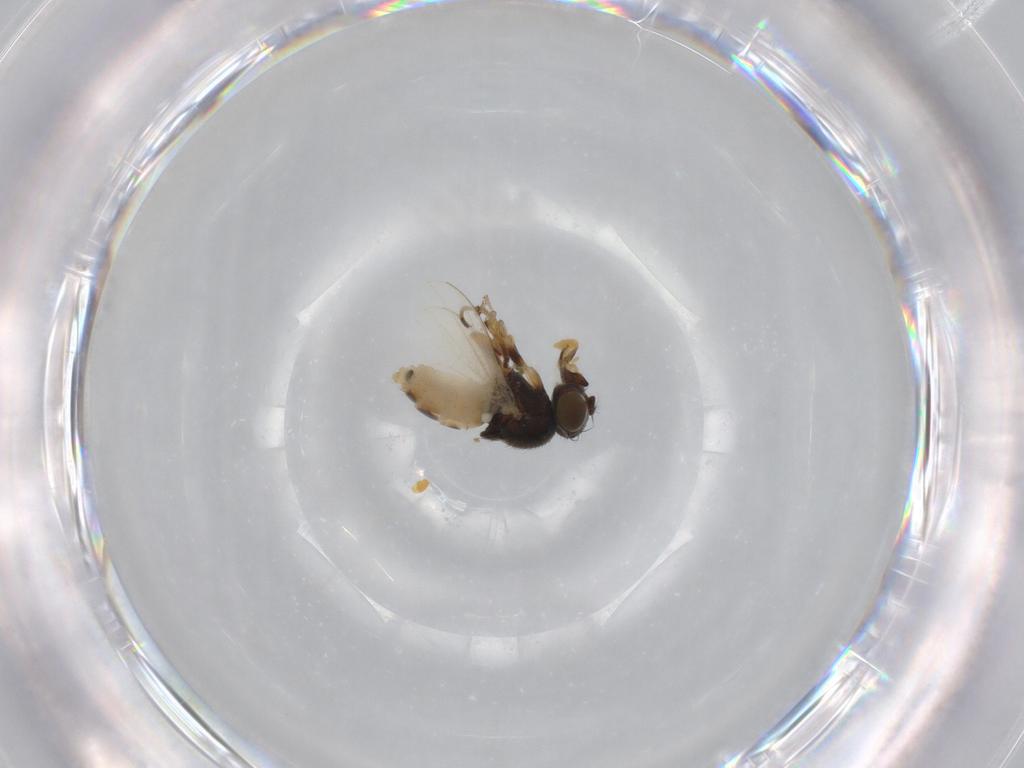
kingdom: Animalia
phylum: Arthropoda
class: Insecta
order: Diptera
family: Ephydridae
